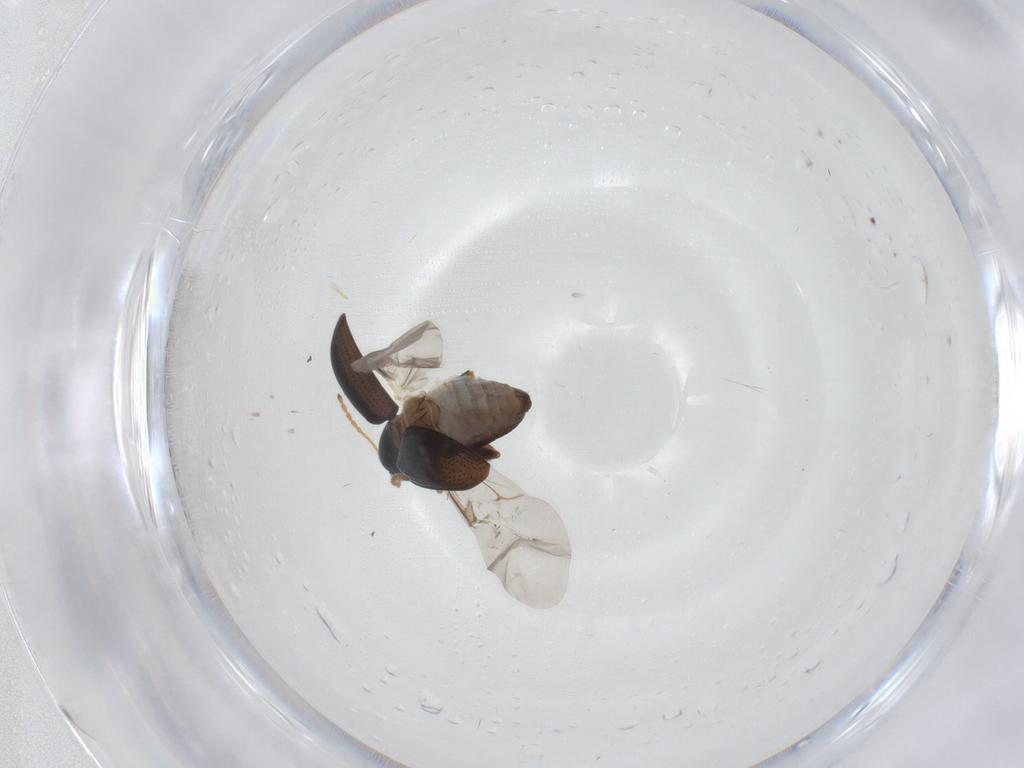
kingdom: Animalia
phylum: Arthropoda
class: Insecta
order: Coleoptera
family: Chrysomelidae
